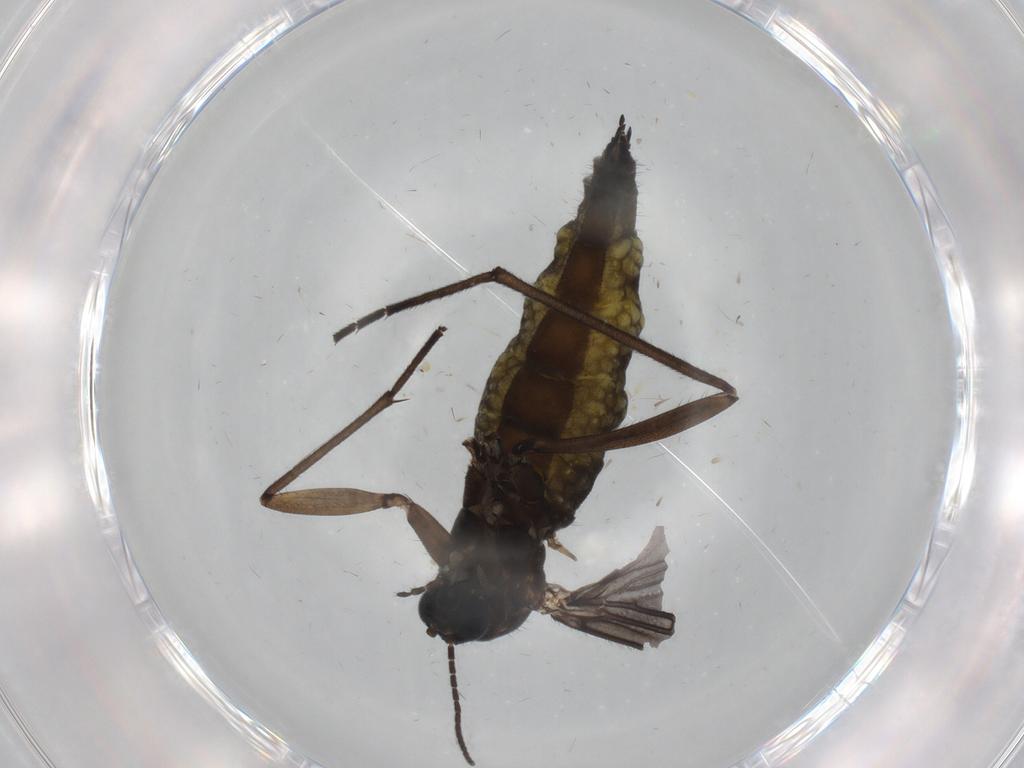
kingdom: Animalia
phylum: Arthropoda
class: Insecta
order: Diptera
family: Sciaridae
